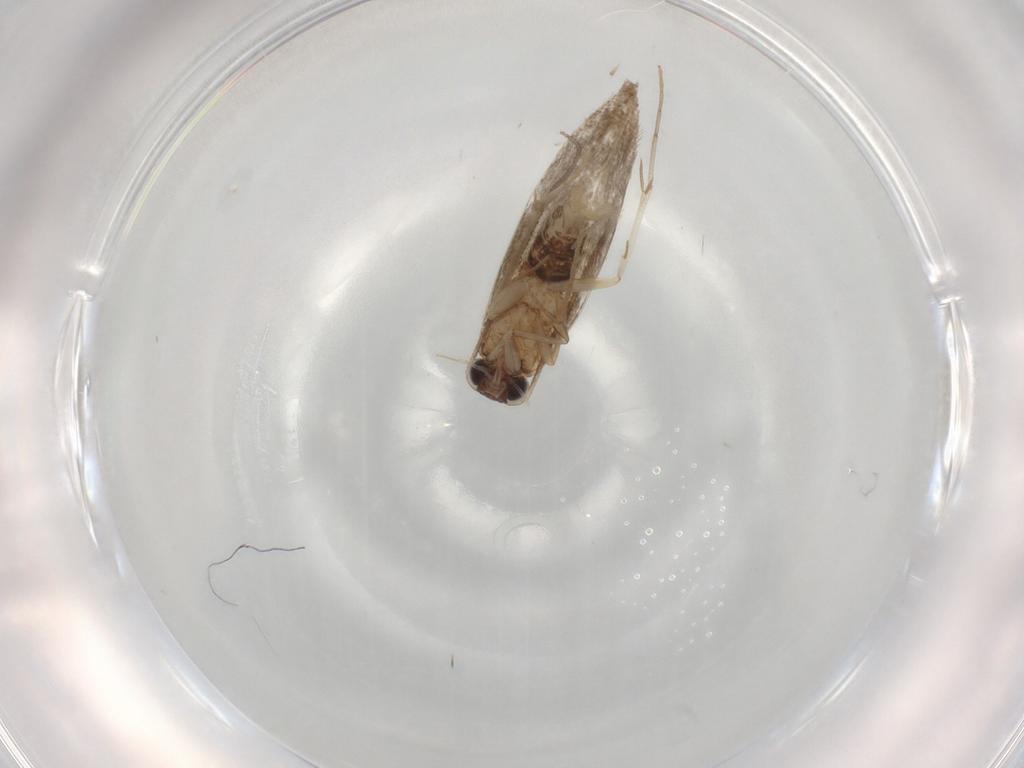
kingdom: Animalia
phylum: Arthropoda
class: Insecta
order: Lepidoptera
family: Tineidae
